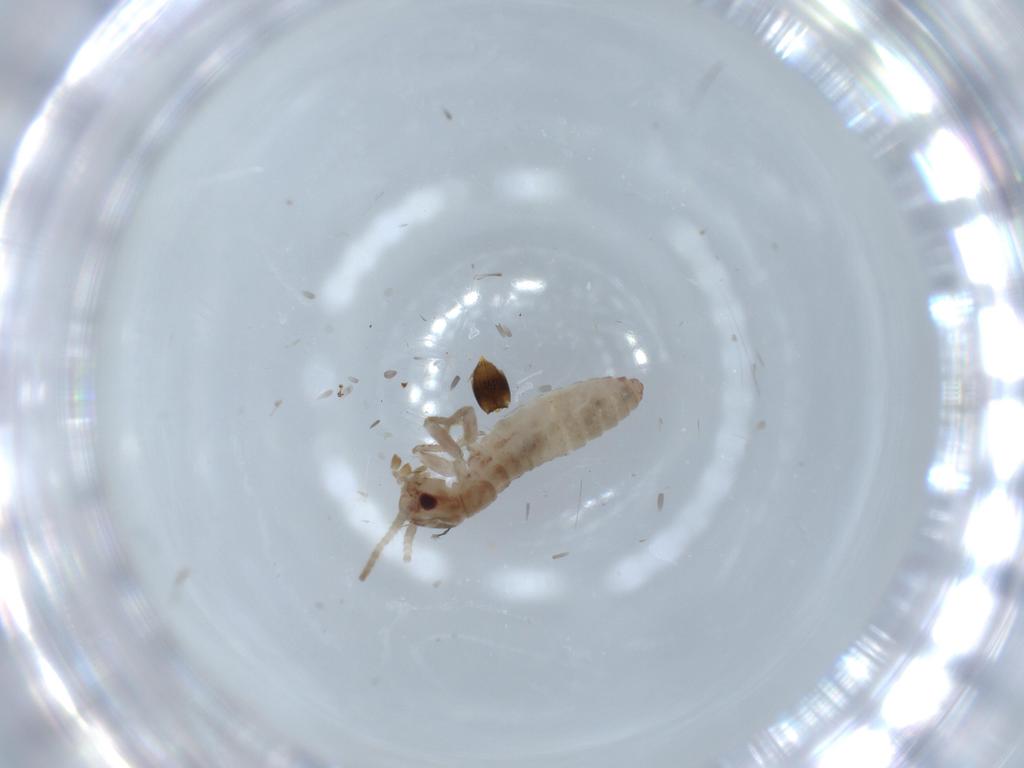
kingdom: Animalia
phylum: Arthropoda
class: Insecta
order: Orthoptera
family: Mogoplistidae
